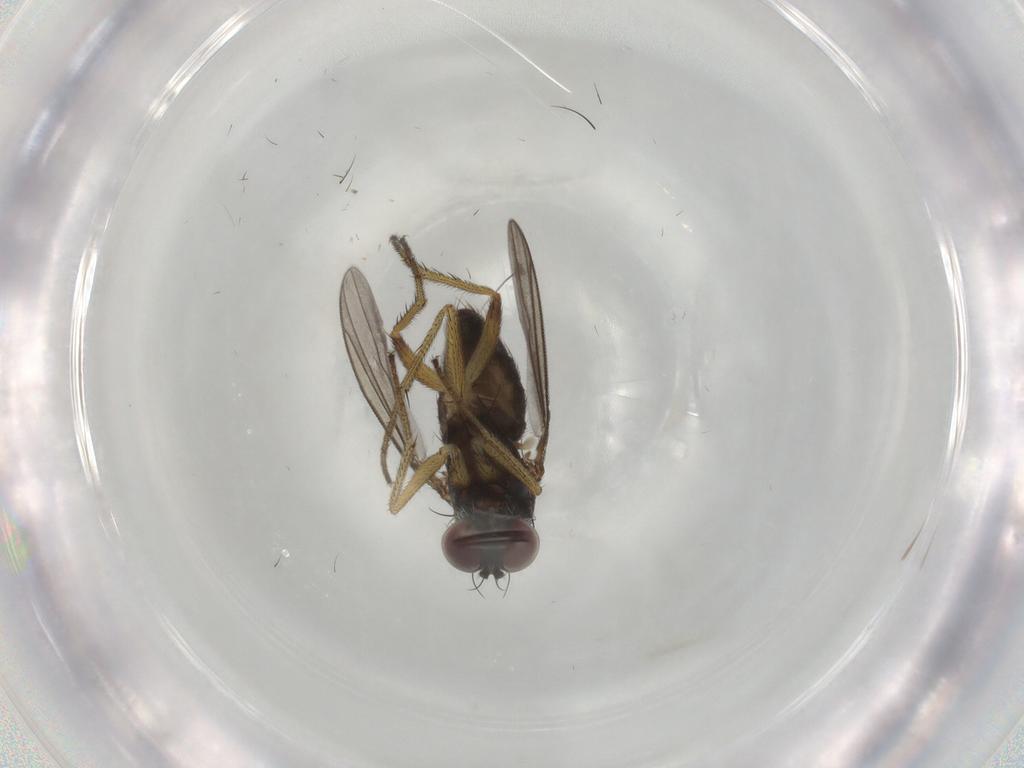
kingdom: Animalia
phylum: Arthropoda
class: Insecta
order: Diptera
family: Dolichopodidae
